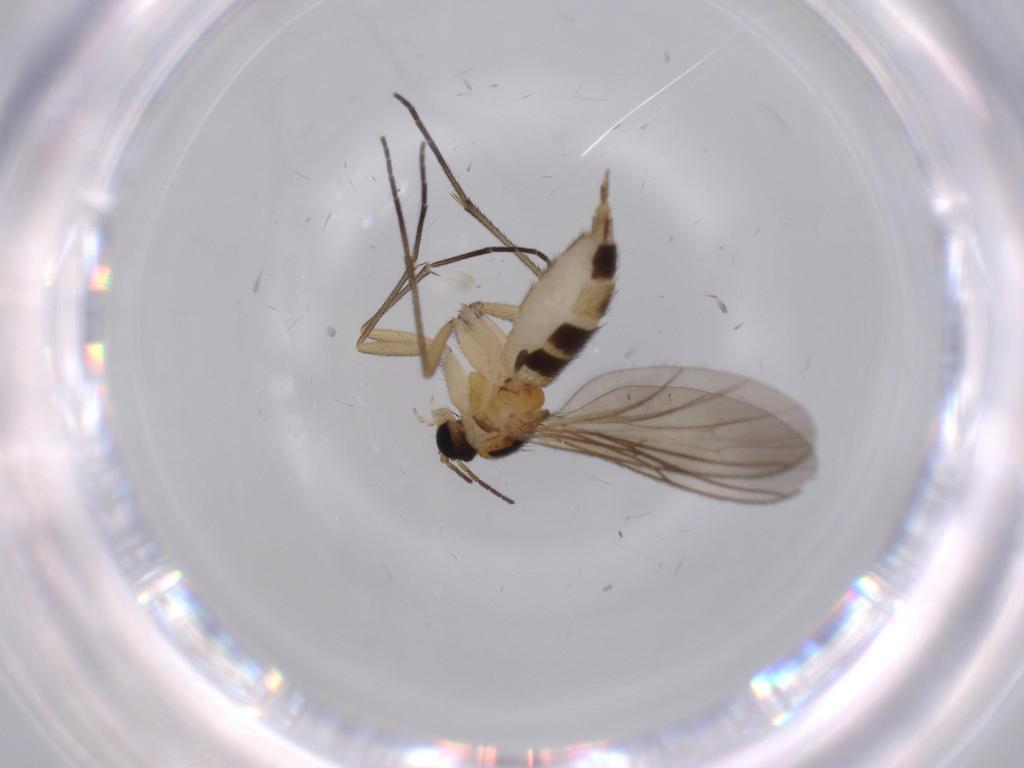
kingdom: Animalia
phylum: Arthropoda
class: Insecta
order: Diptera
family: Sciaridae
